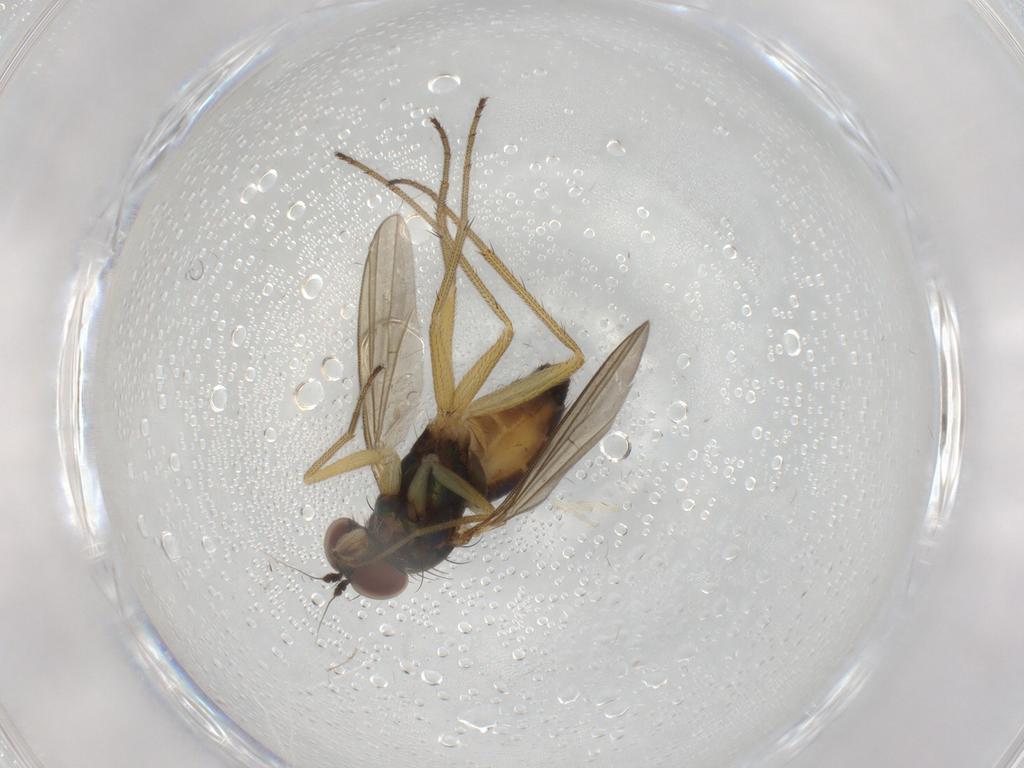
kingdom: Animalia
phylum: Arthropoda
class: Insecta
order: Diptera
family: Dolichopodidae
